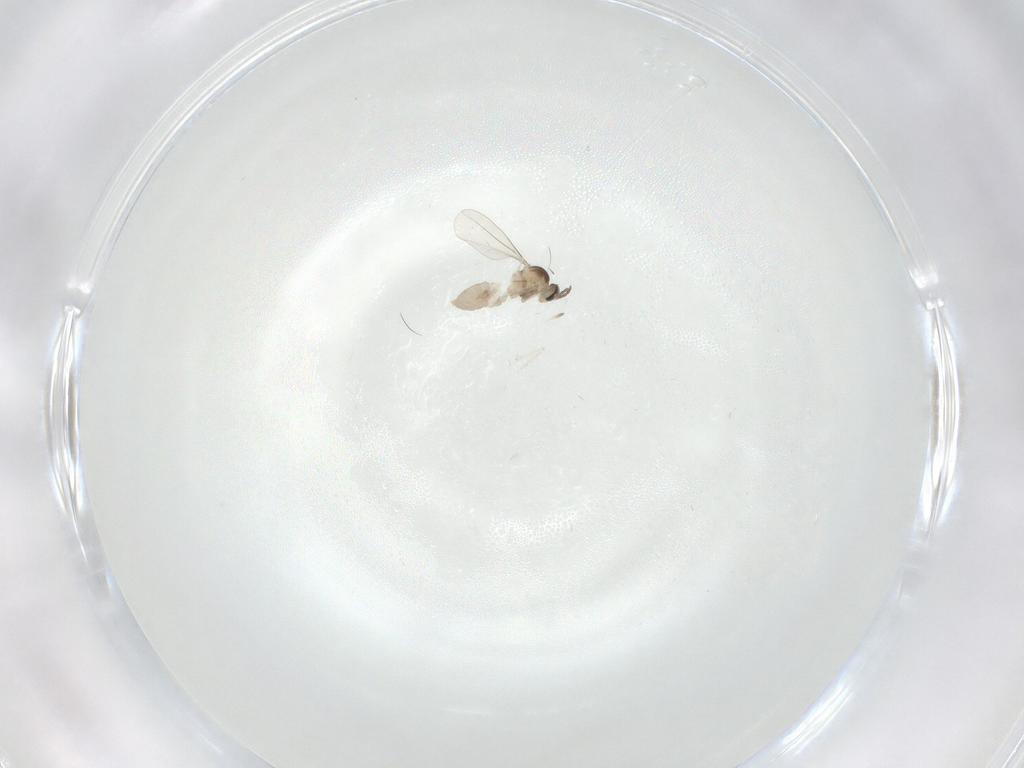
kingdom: Animalia
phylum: Arthropoda
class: Insecta
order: Diptera
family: Cecidomyiidae
